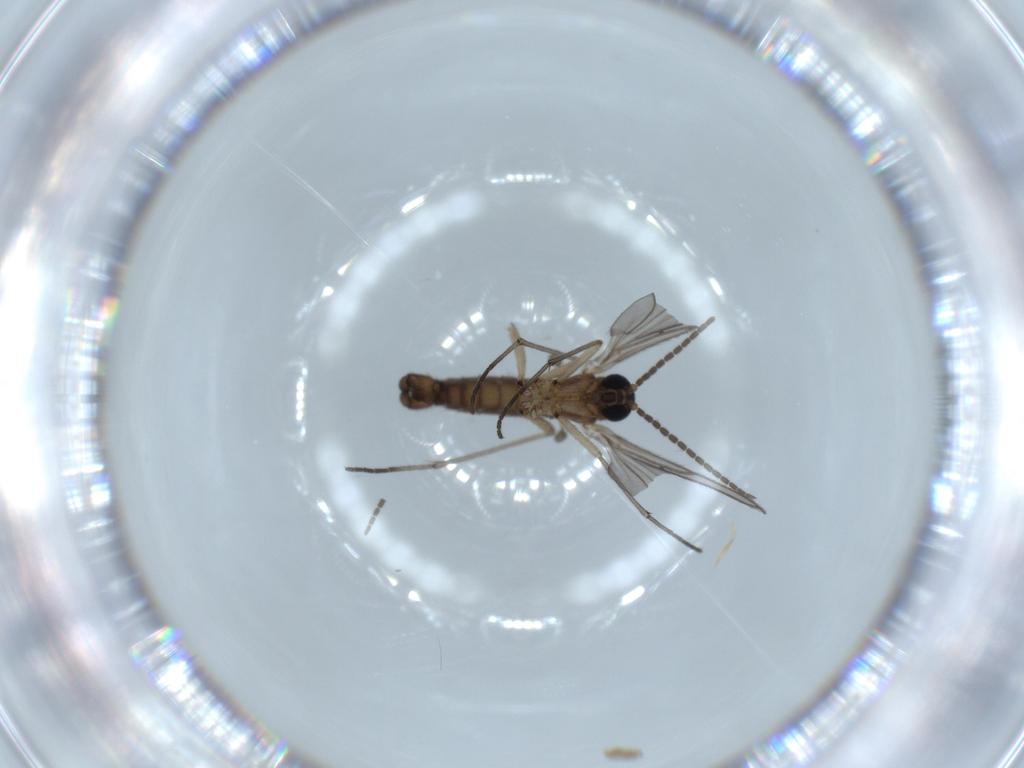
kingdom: Animalia
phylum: Arthropoda
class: Insecta
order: Diptera
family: Sciaridae
